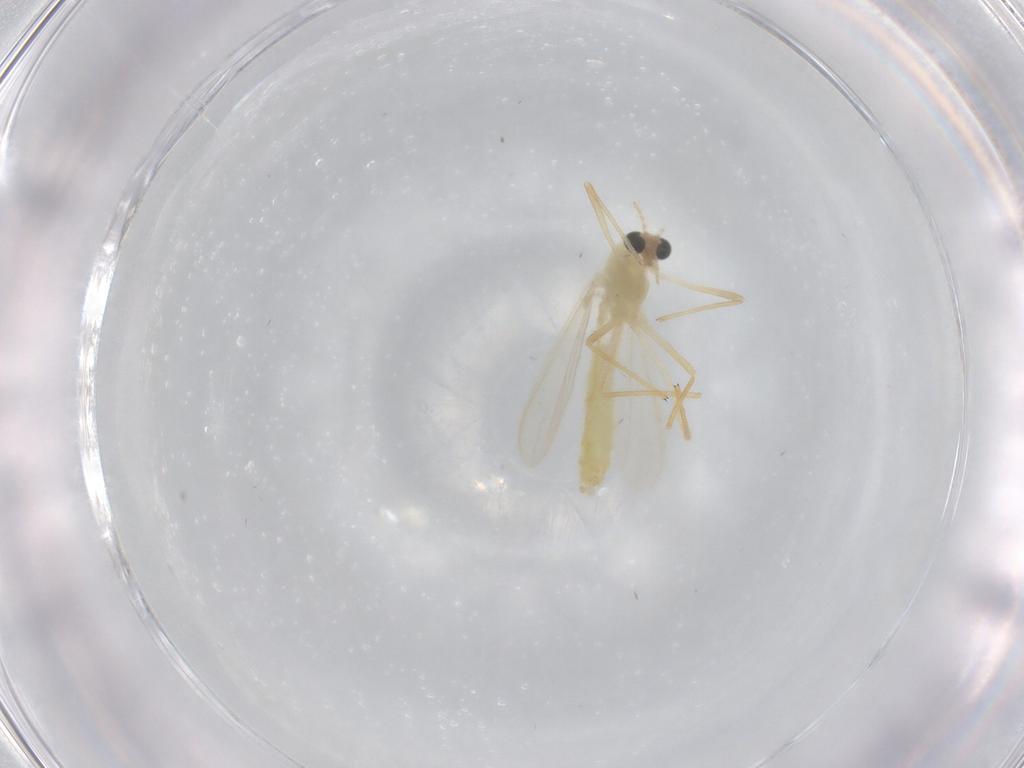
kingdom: Animalia
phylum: Arthropoda
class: Insecta
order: Diptera
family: Chironomidae
